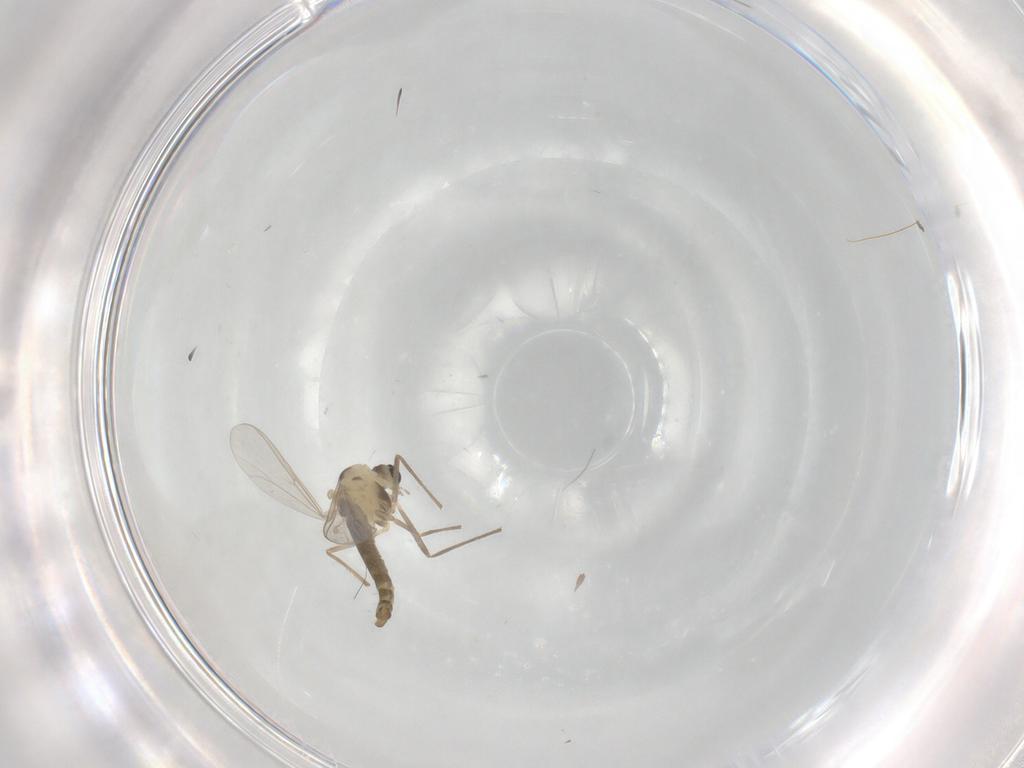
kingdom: Animalia
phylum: Arthropoda
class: Insecta
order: Diptera
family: Chironomidae
